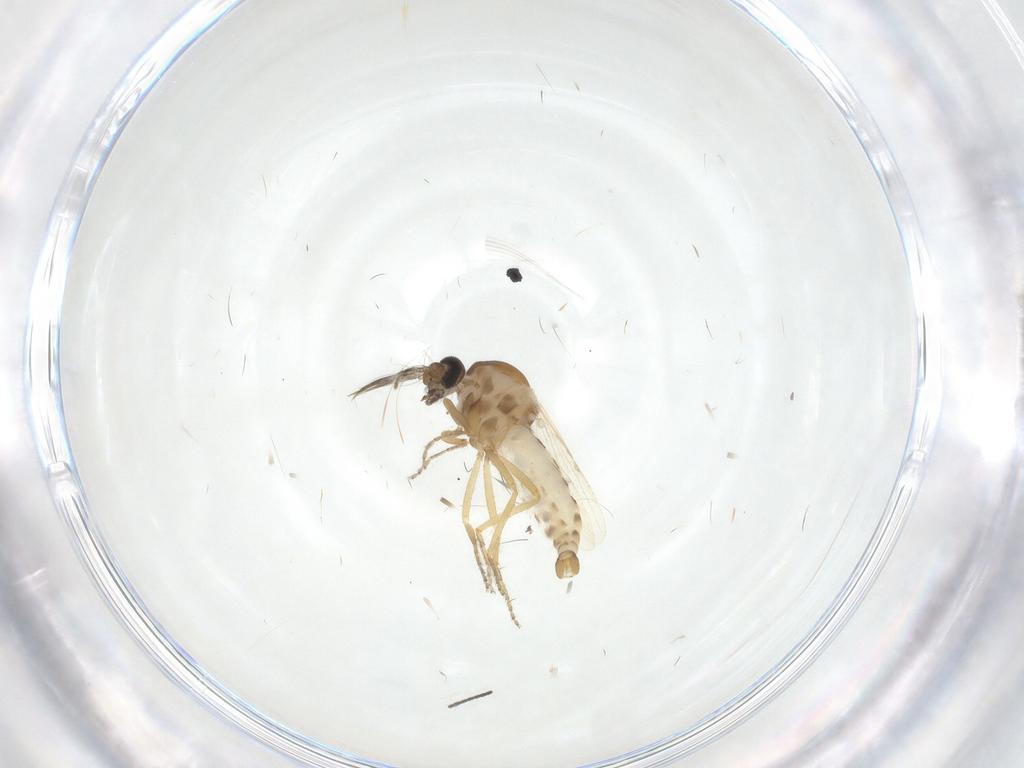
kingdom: Animalia
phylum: Arthropoda
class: Insecta
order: Diptera
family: Ceratopogonidae
